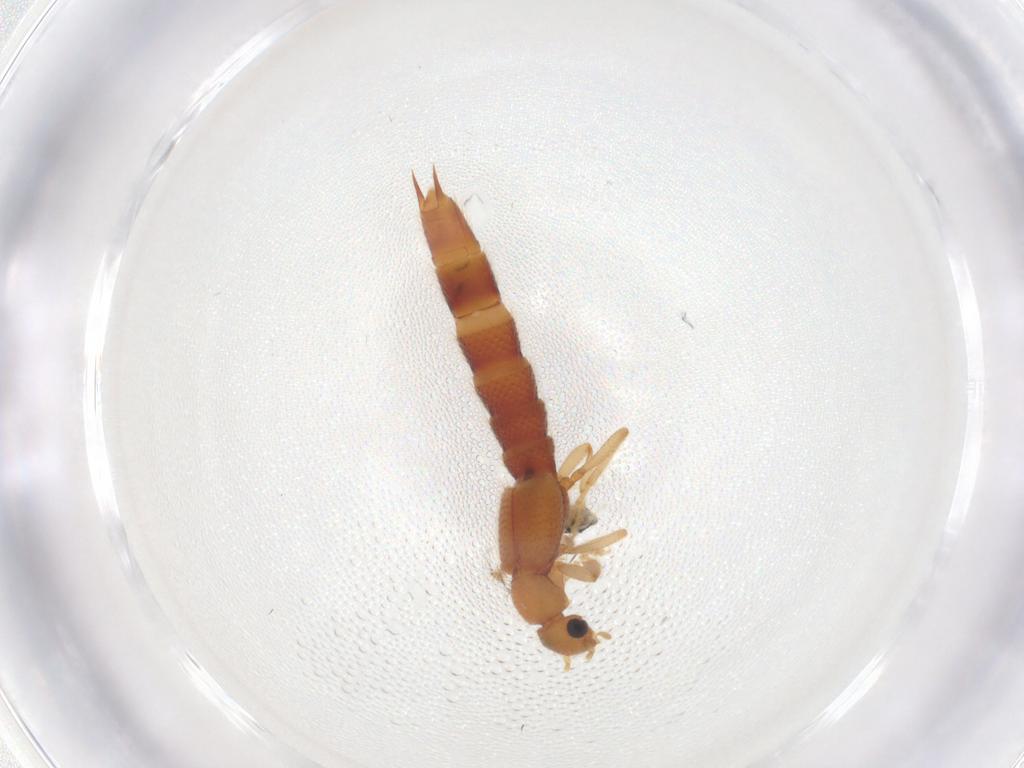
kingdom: Animalia
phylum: Arthropoda
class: Insecta
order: Coleoptera
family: Staphylinidae
